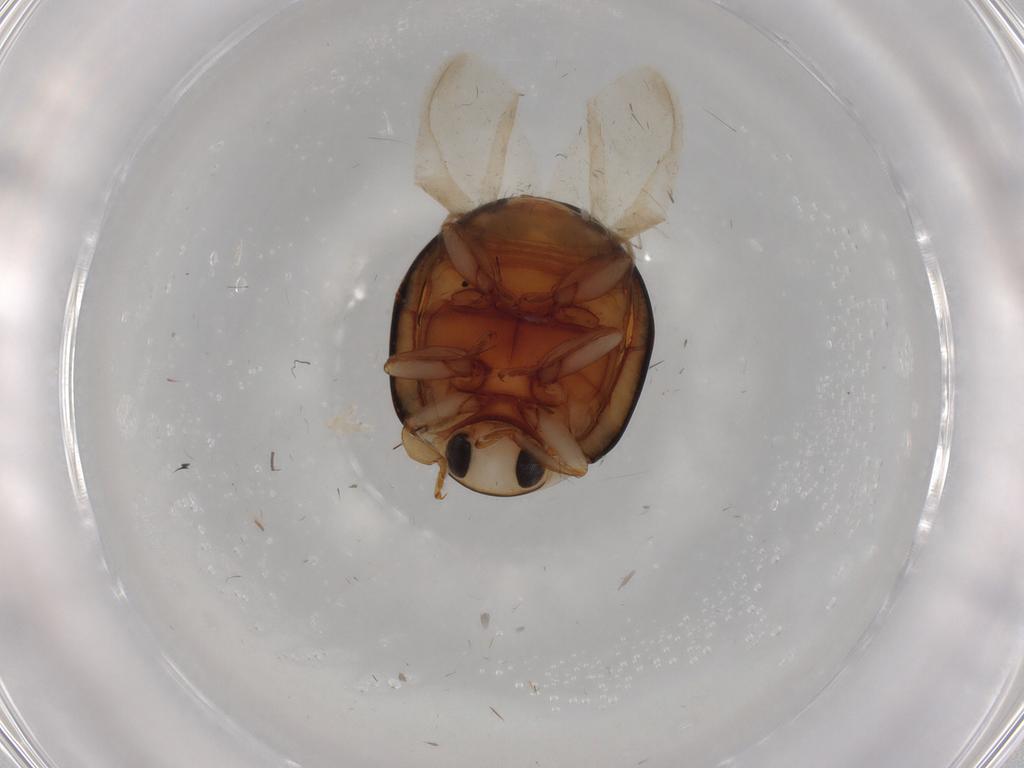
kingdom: Animalia
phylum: Arthropoda
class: Insecta
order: Coleoptera
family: Coccinellidae
